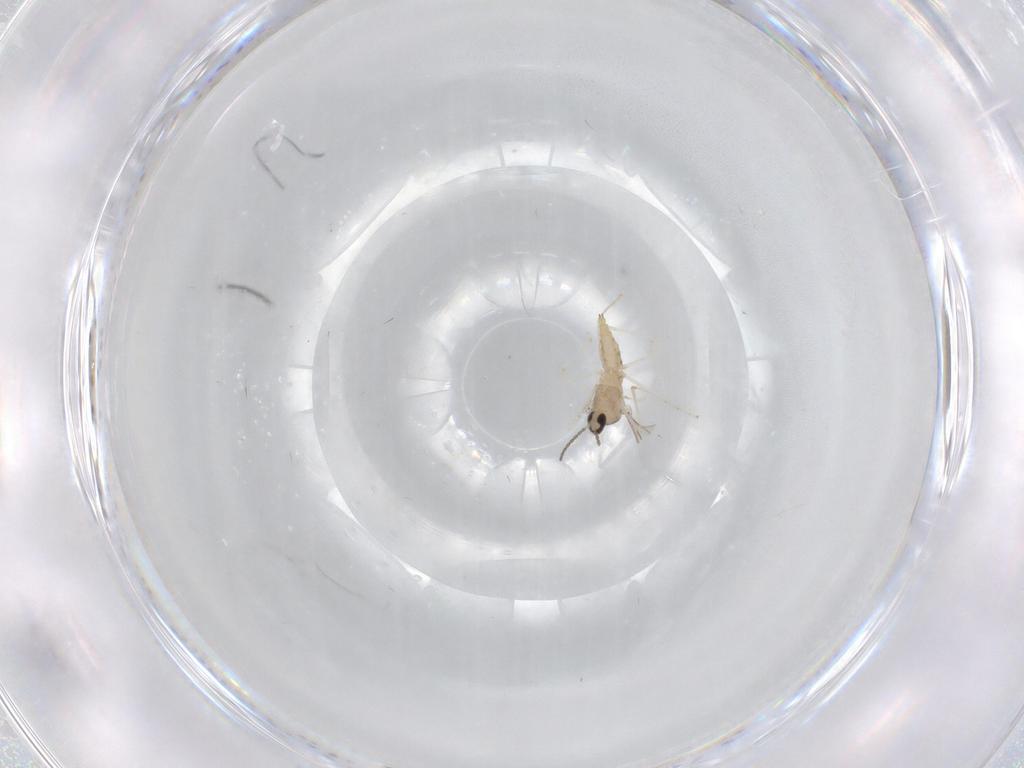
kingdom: Animalia
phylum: Arthropoda
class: Insecta
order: Diptera
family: Cecidomyiidae
